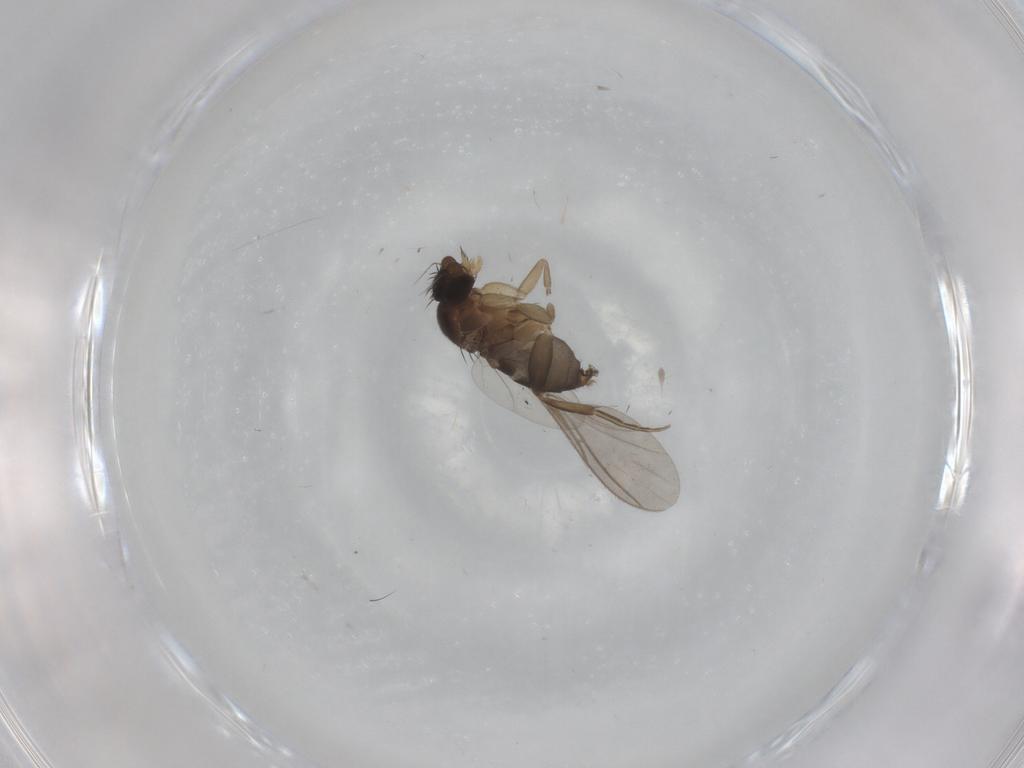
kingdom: Animalia
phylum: Arthropoda
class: Insecta
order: Diptera
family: Phoridae
